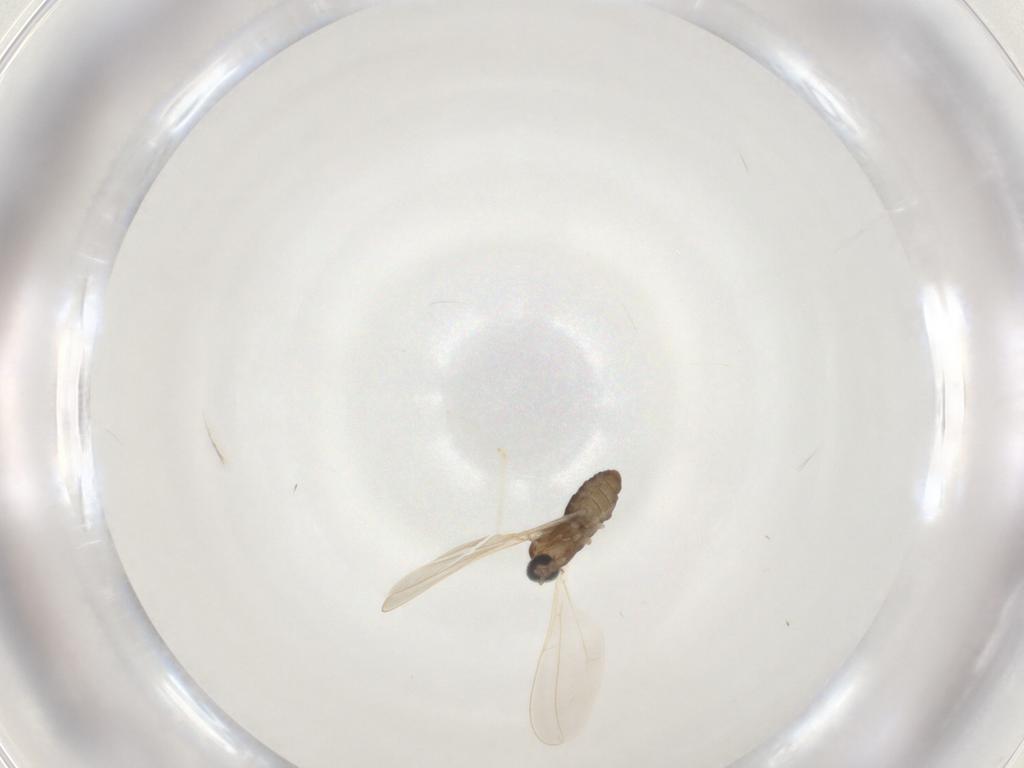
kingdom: Animalia
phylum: Arthropoda
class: Insecta
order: Diptera
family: Cecidomyiidae
